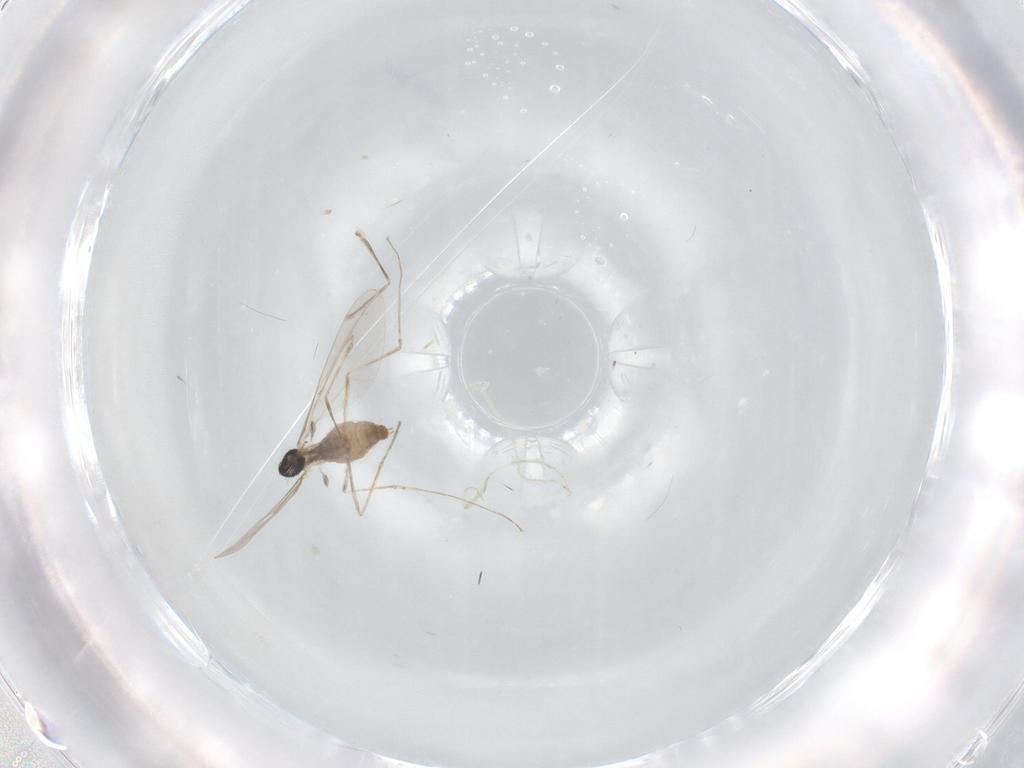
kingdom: Animalia
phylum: Arthropoda
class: Insecta
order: Diptera
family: Cecidomyiidae
